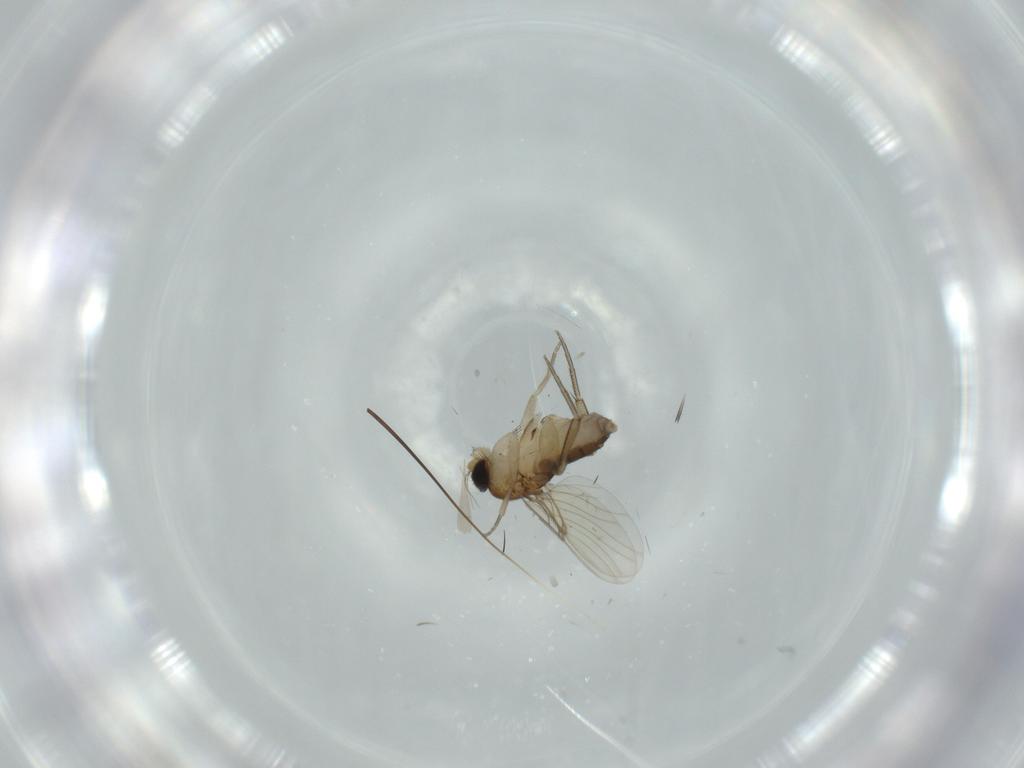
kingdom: Animalia
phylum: Arthropoda
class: Insecta
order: Diptera
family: Phoridae
